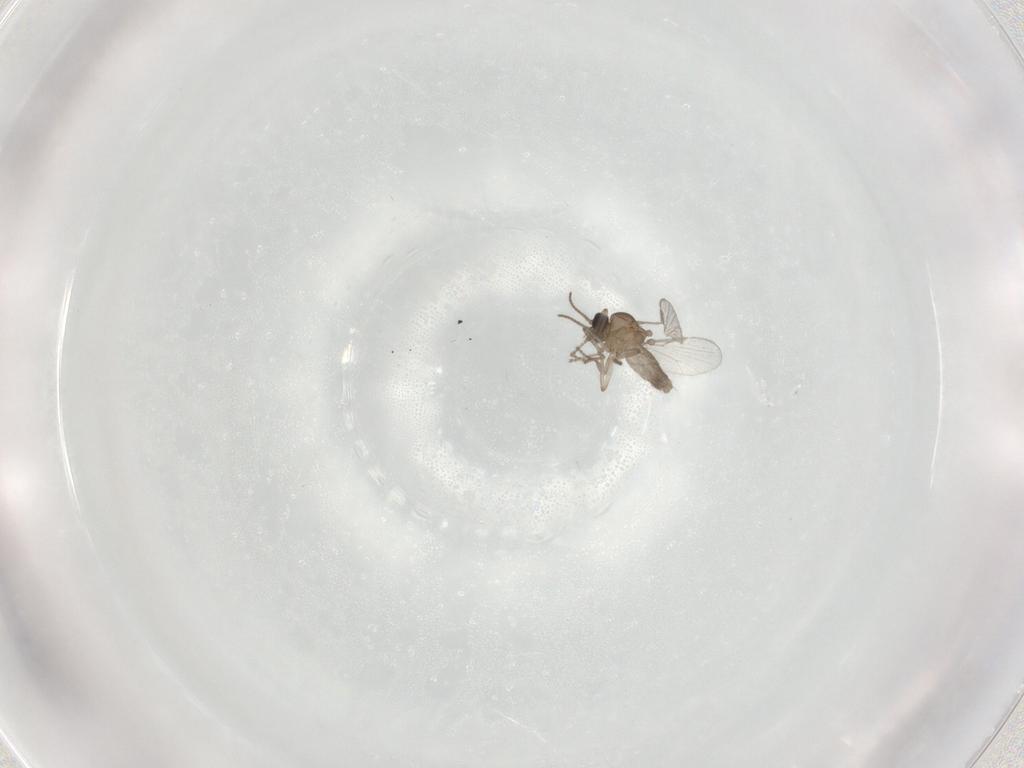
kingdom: Animalia
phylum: Arthropoda
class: Insecta
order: Diptera
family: Ceratopogonidae
